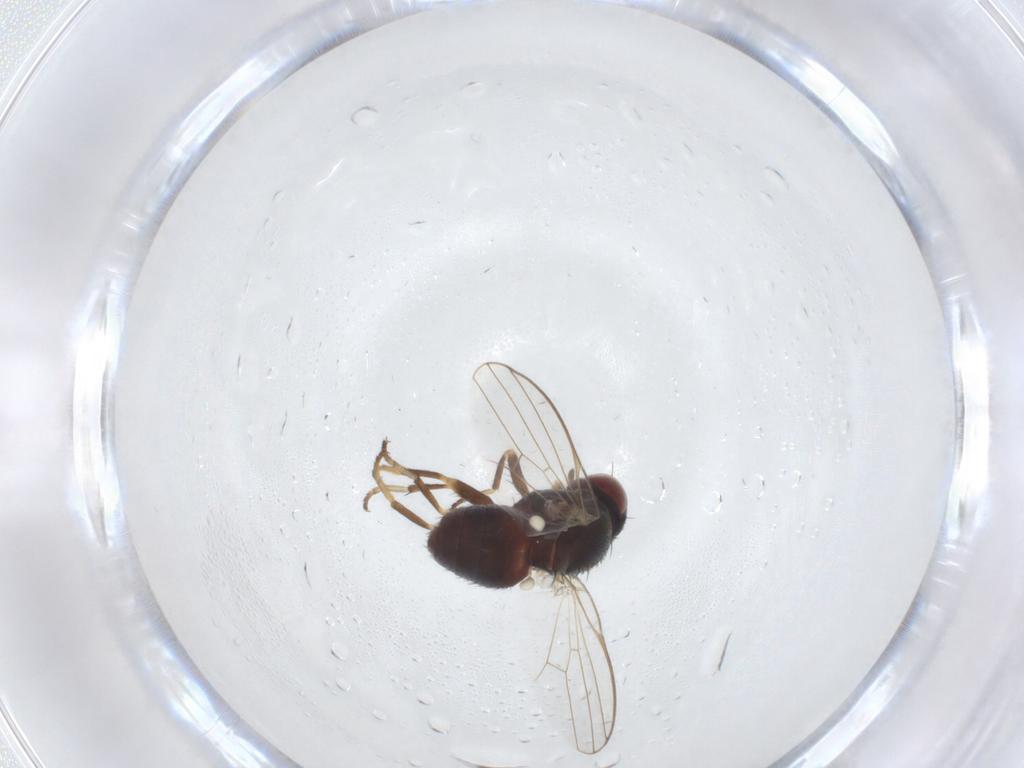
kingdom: Animalia
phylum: Arthropoda
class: Insecta
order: Diptera
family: Chamaemyiidae
